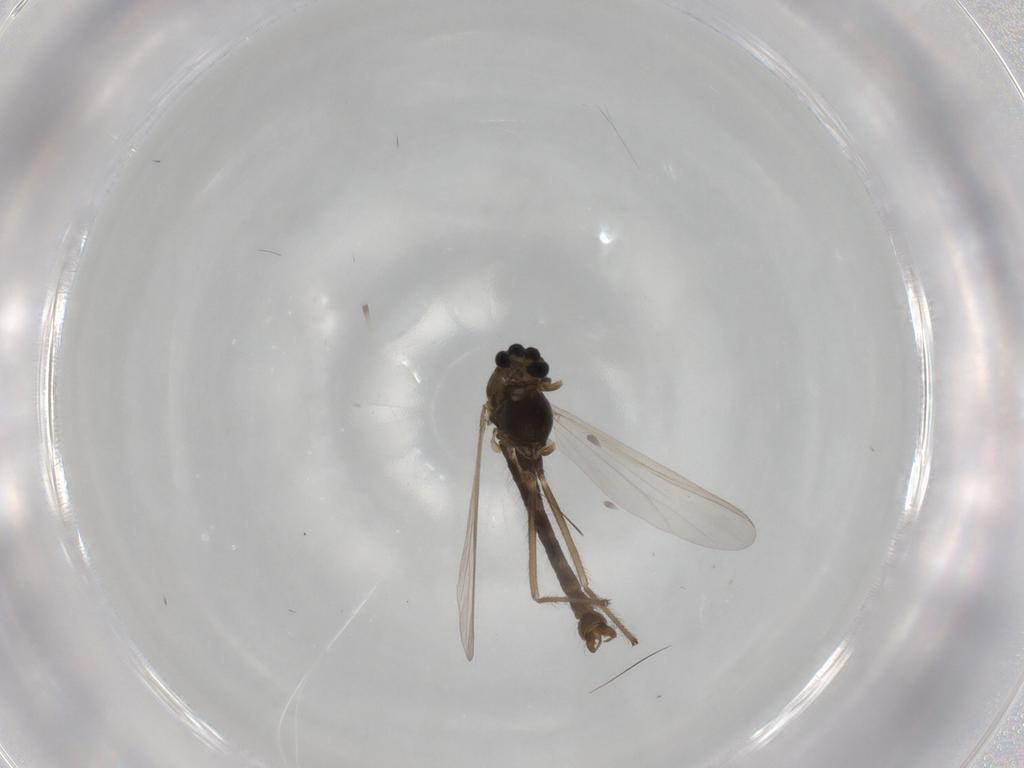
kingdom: Animalia
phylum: Arthropoda
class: Insecta
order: Diptera
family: Chironomidae
